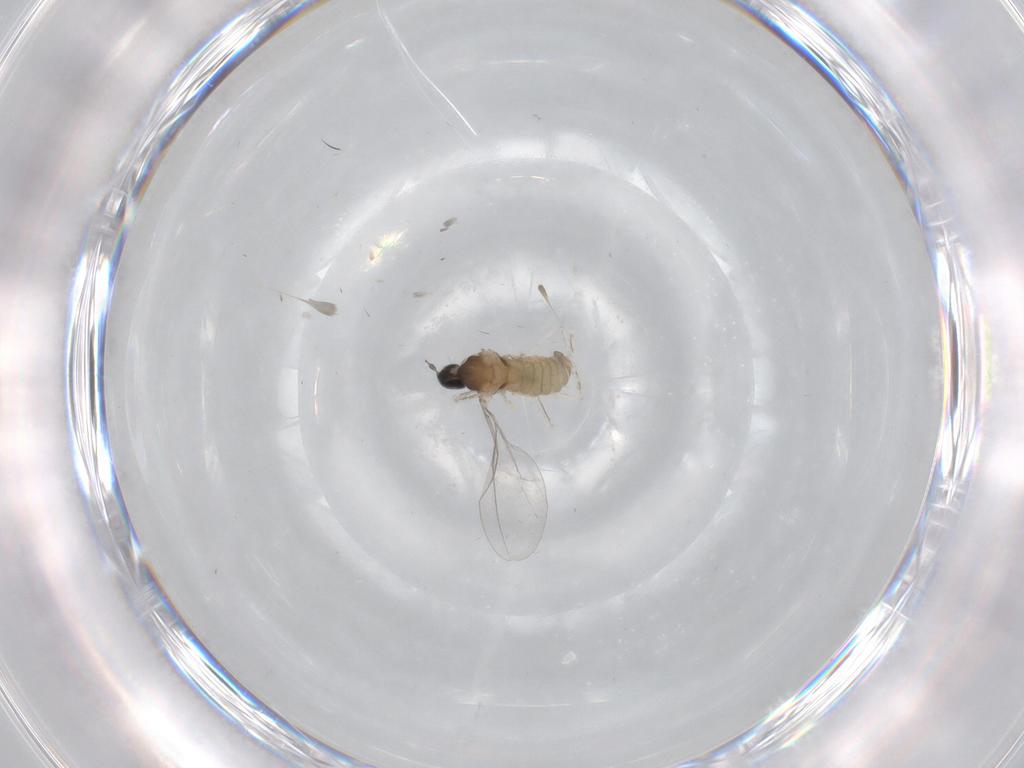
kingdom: Animalia
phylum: Arthropoda
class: Insecta
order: Diptera
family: Cecidomyiidae
